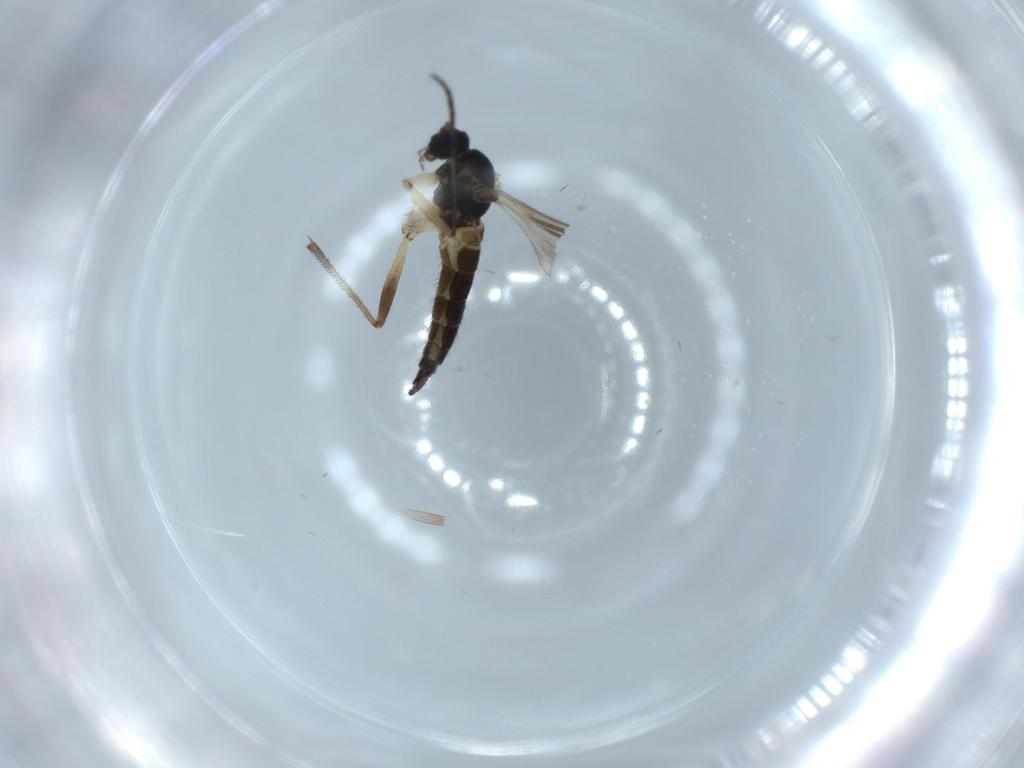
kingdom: Animalia
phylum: Arthropoda
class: Insecta
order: Diptera
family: Sciaridae
